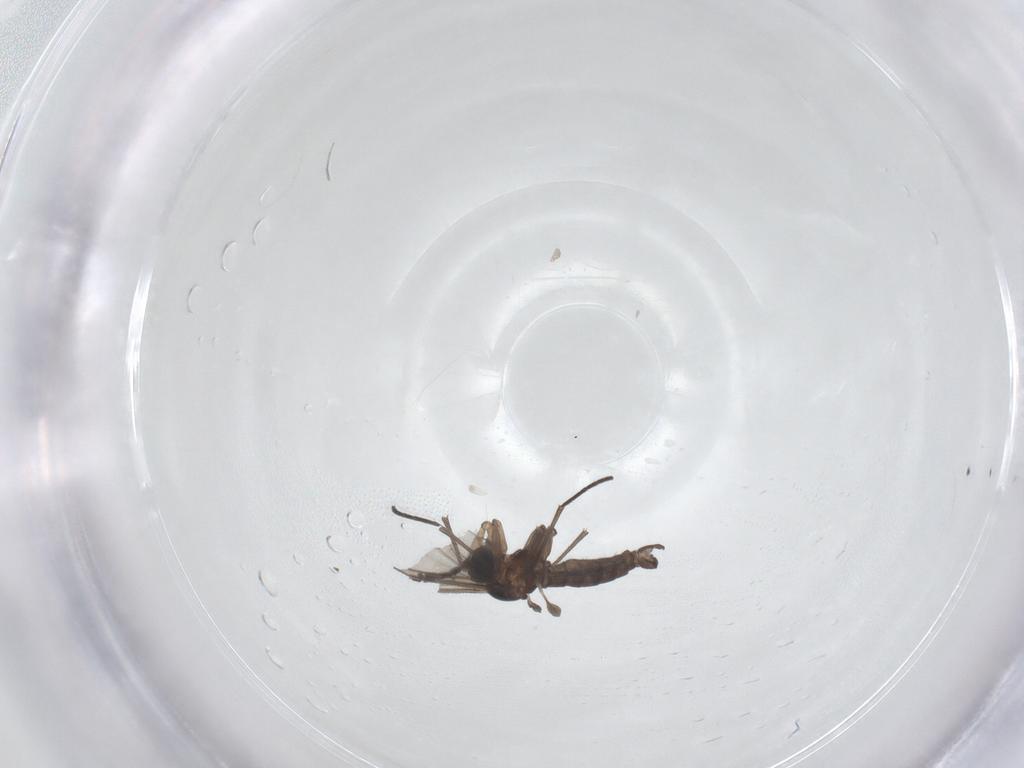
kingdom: Animalia
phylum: Arthropoda
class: Insecta
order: Diptera
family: Sciaridae
